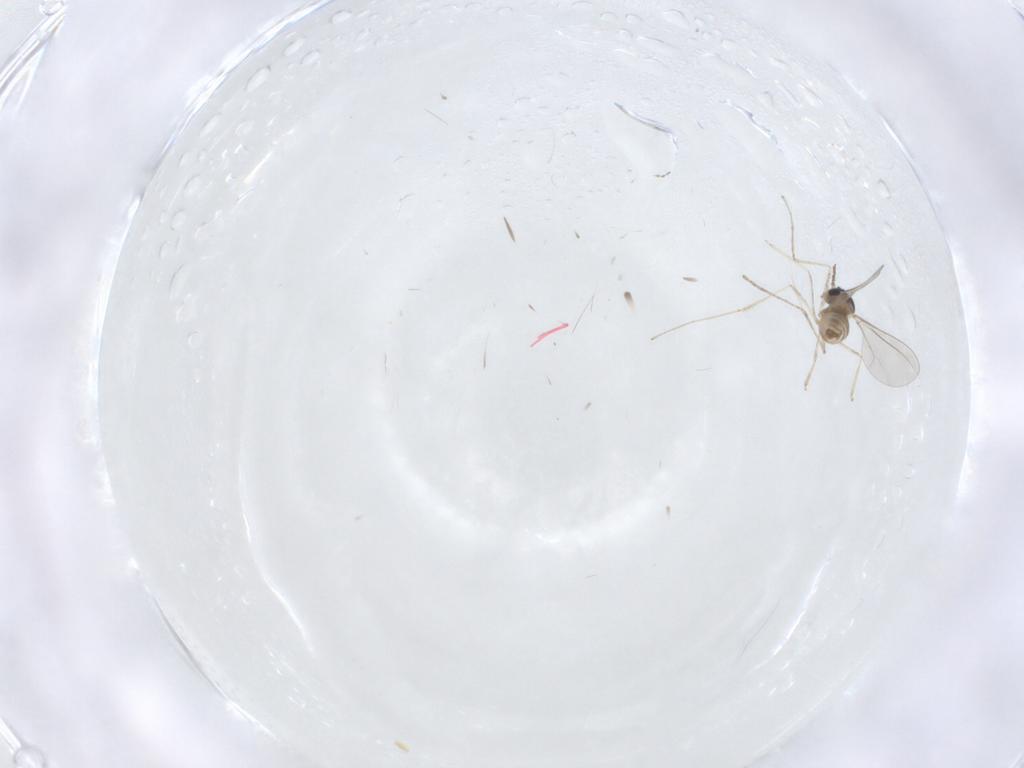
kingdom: Animalia
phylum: Arthropoda
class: Insecta
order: Diptera
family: Cecidomyiidae
